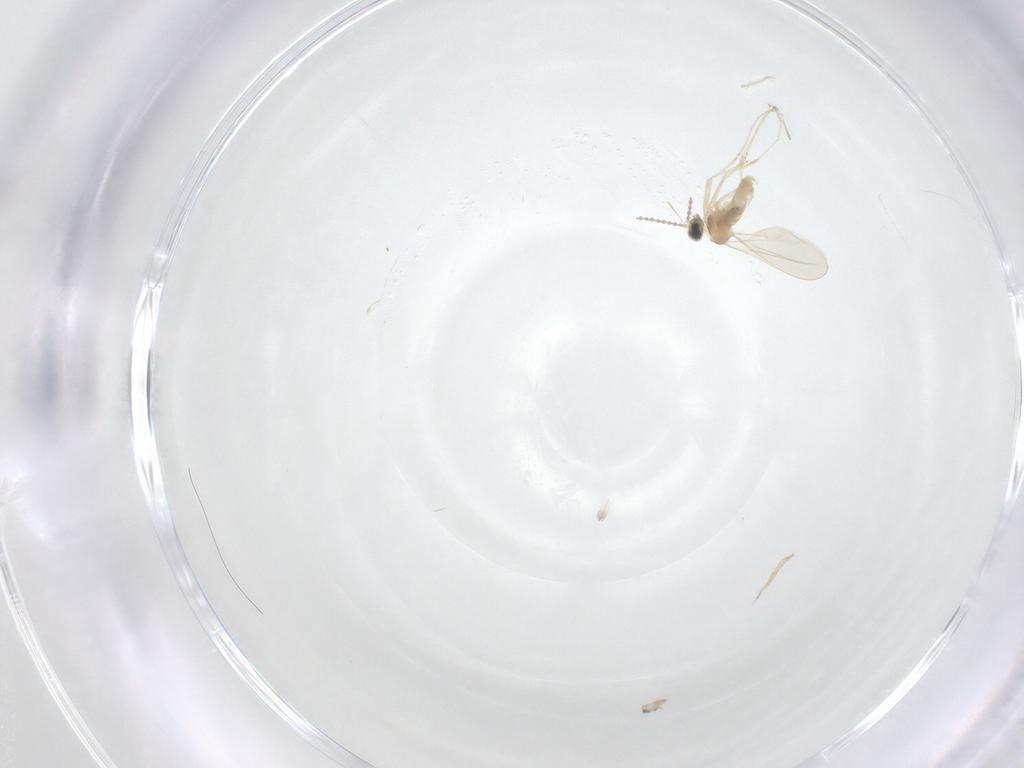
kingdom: Animalia
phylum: Arthropoda
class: Insecta
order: Diptera
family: Cecidomyiidae
